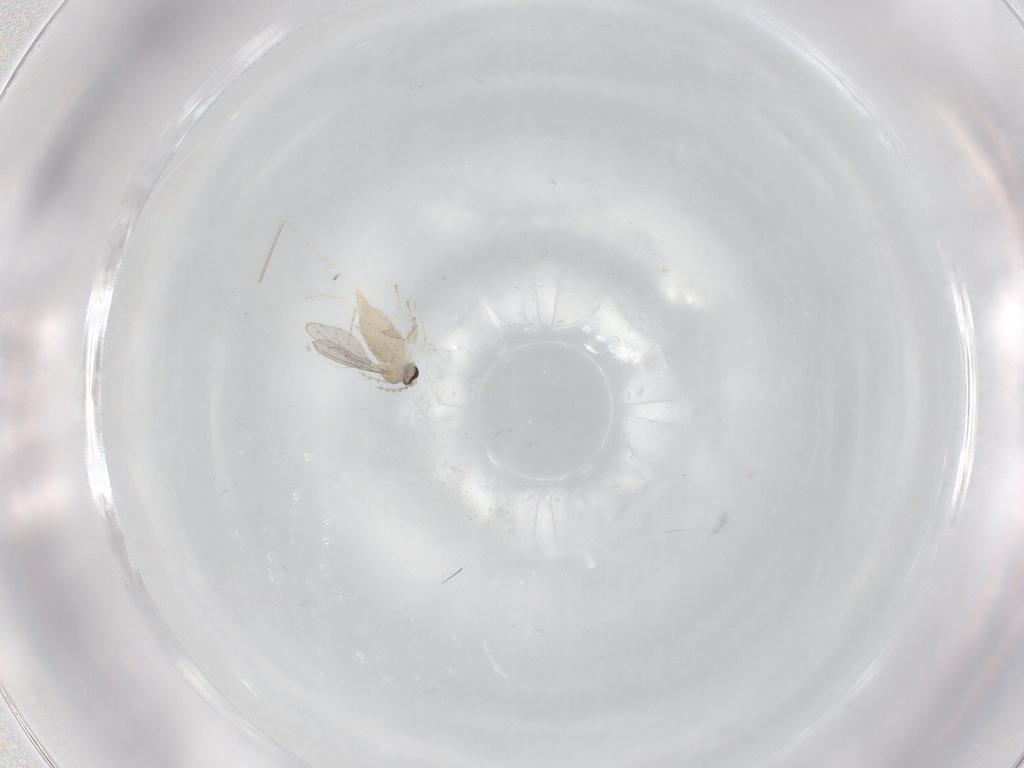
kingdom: Animalia
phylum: Arthropoda
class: Insecta
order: Diptera
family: Cecidomyiidae
